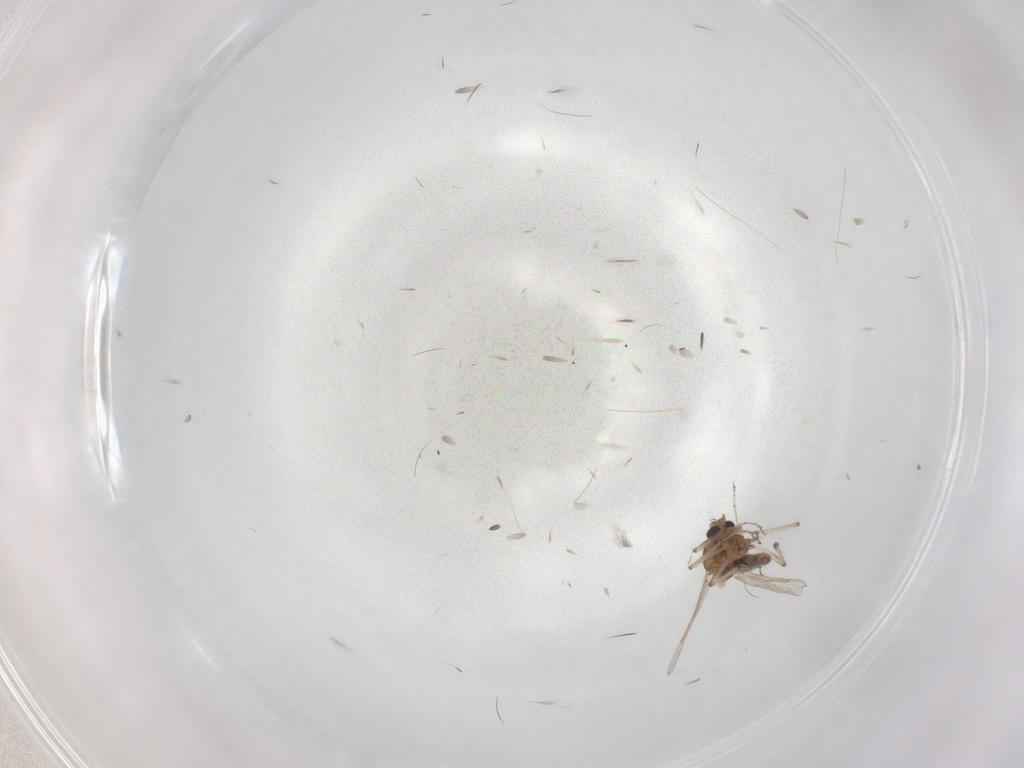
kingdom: Animalia
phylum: Arthropoda
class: Insecta
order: Diptera
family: Ceratopogonidae
